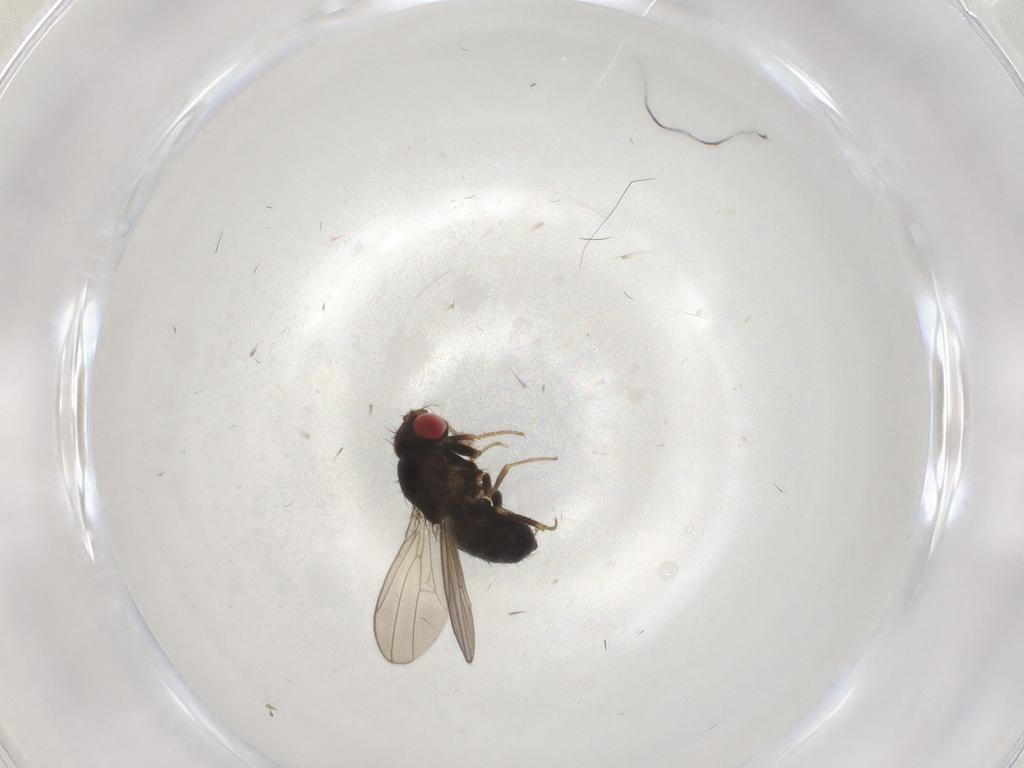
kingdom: Animalia
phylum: Arthropoda
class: Insecta
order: Diptera
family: Drosophilidae
